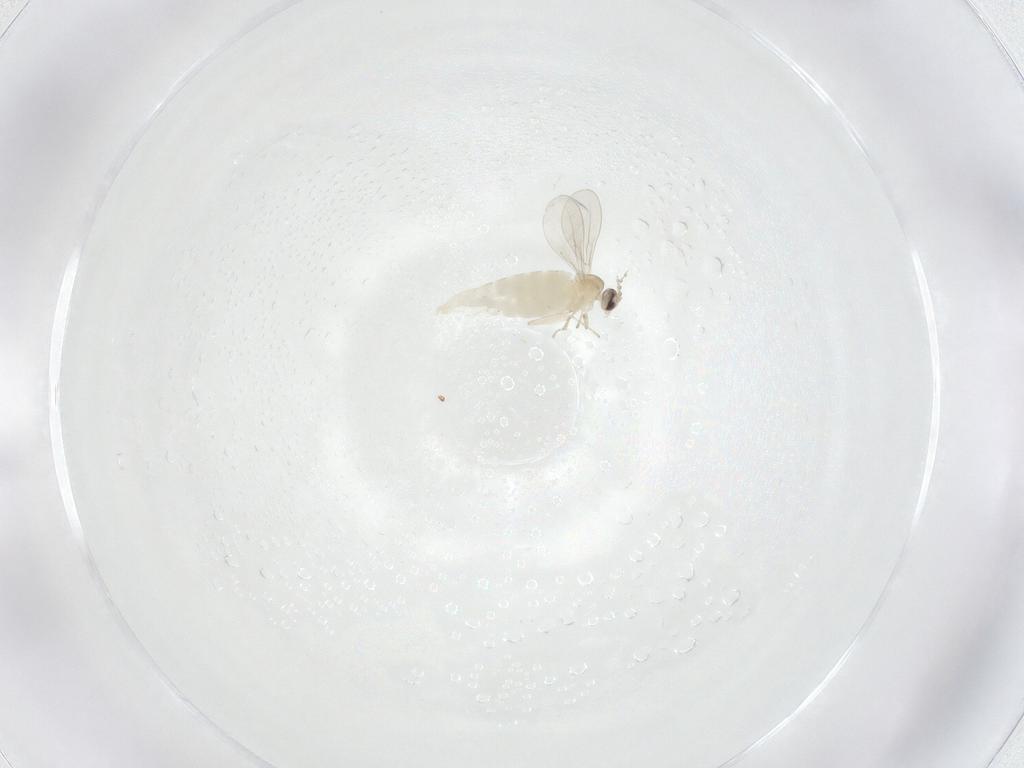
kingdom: Animalia
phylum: Arthropoda
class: Insecta
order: Diptera
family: Cecidomyiidae
